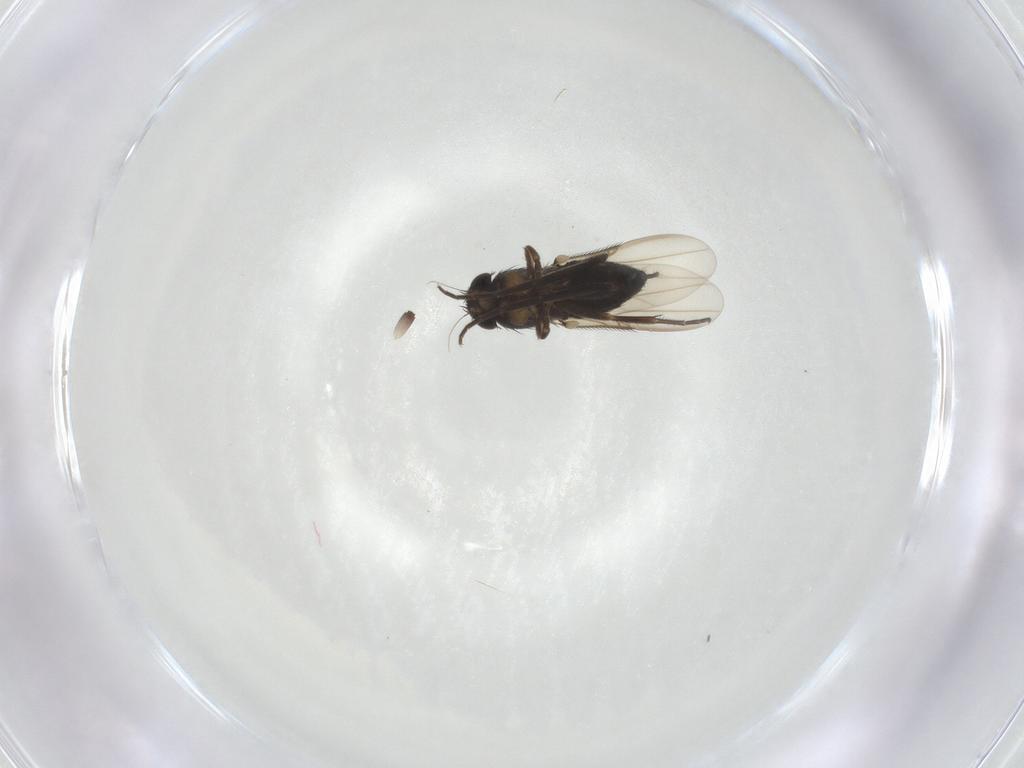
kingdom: Animalia
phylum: Arthropoda
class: Insecta
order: Diptera
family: Phoridae
